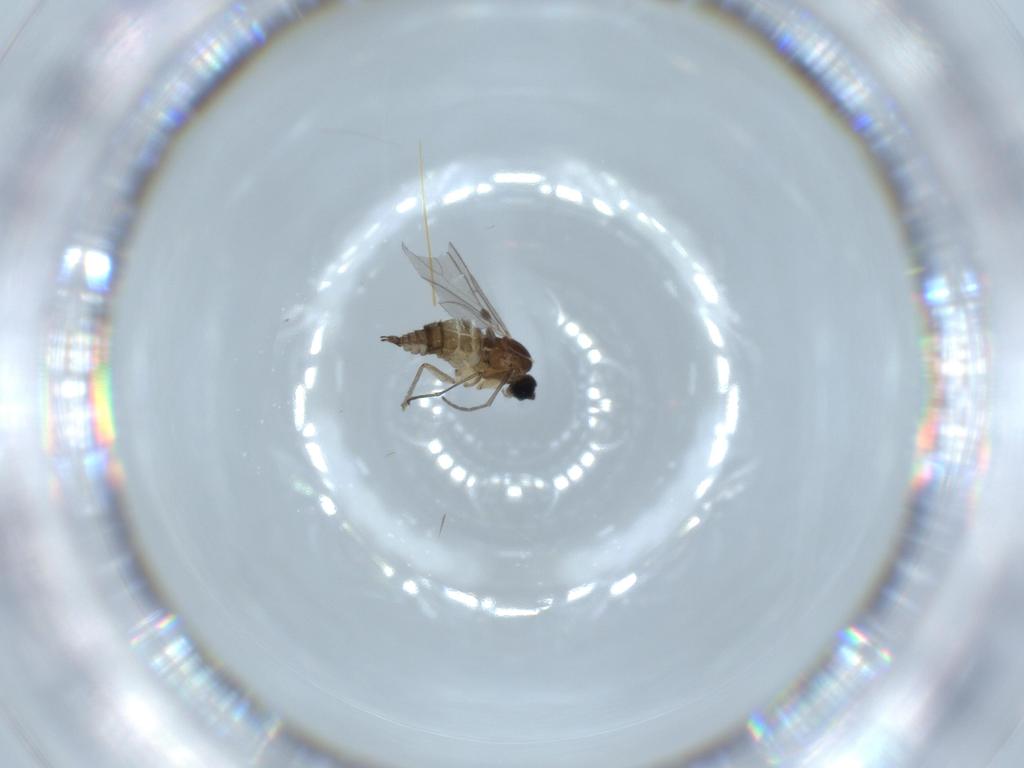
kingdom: Animalia
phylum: Arthropoda
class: Insecta
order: Diptera
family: Sciaridae
